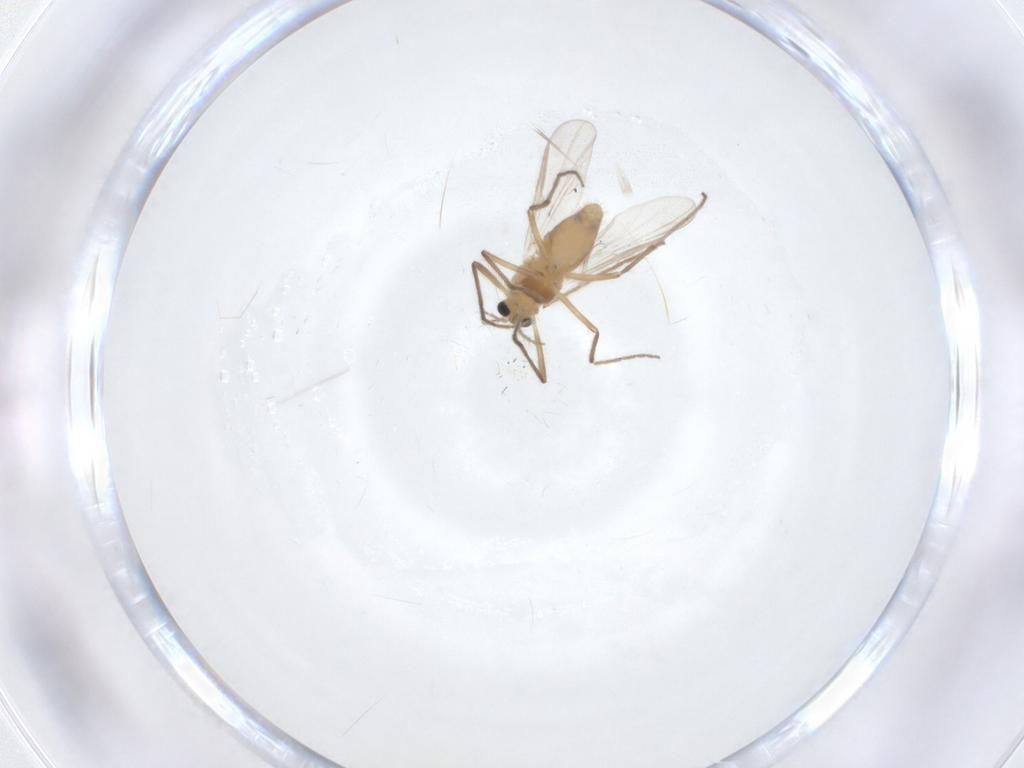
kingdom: Animalia
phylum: Arthropoda
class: Insecta
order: Diptera
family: Chironomidae
